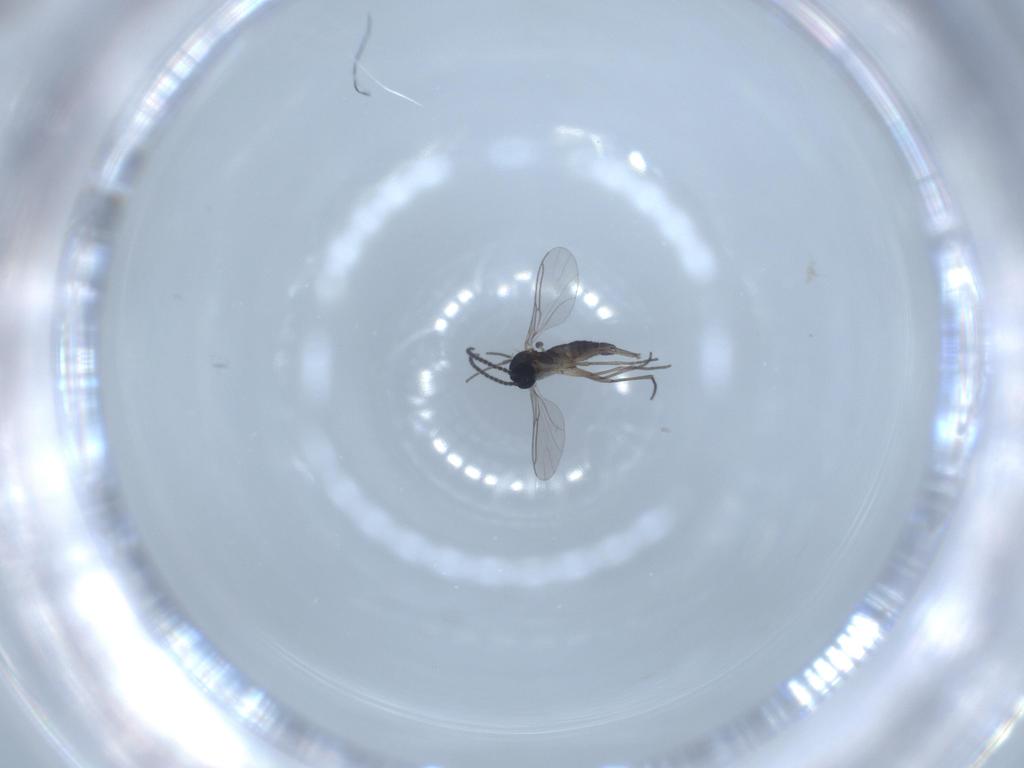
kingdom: Animalia
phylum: Arthropoda
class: Insecta
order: Diptera
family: Sciaridae
